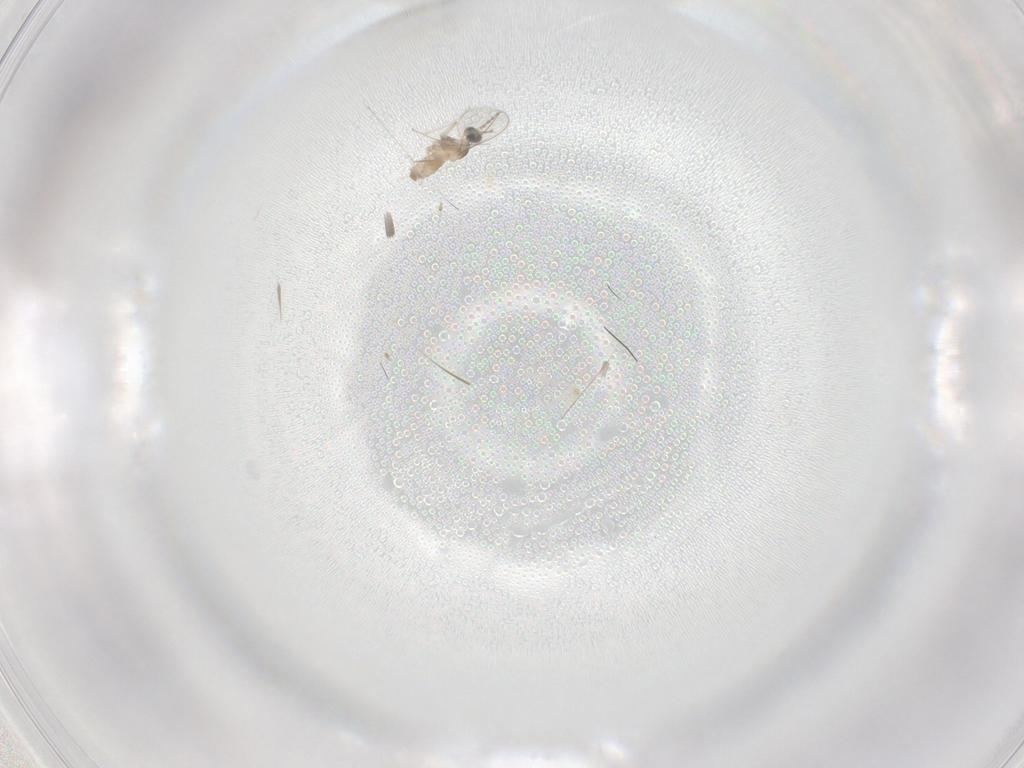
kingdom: Animalia
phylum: Arthropoda
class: Insecta
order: Diptera
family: Cecidomyiidae
